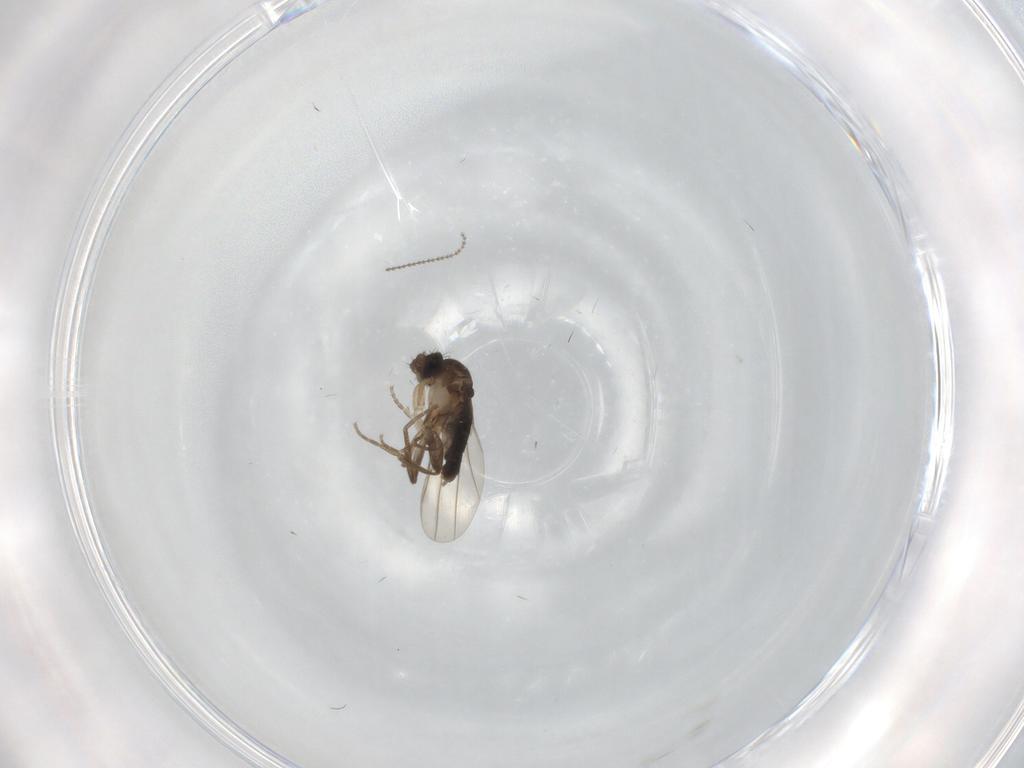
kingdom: Animalia
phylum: Arthropoda
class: Insecta
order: Diptera
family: Cecidomyiidae
